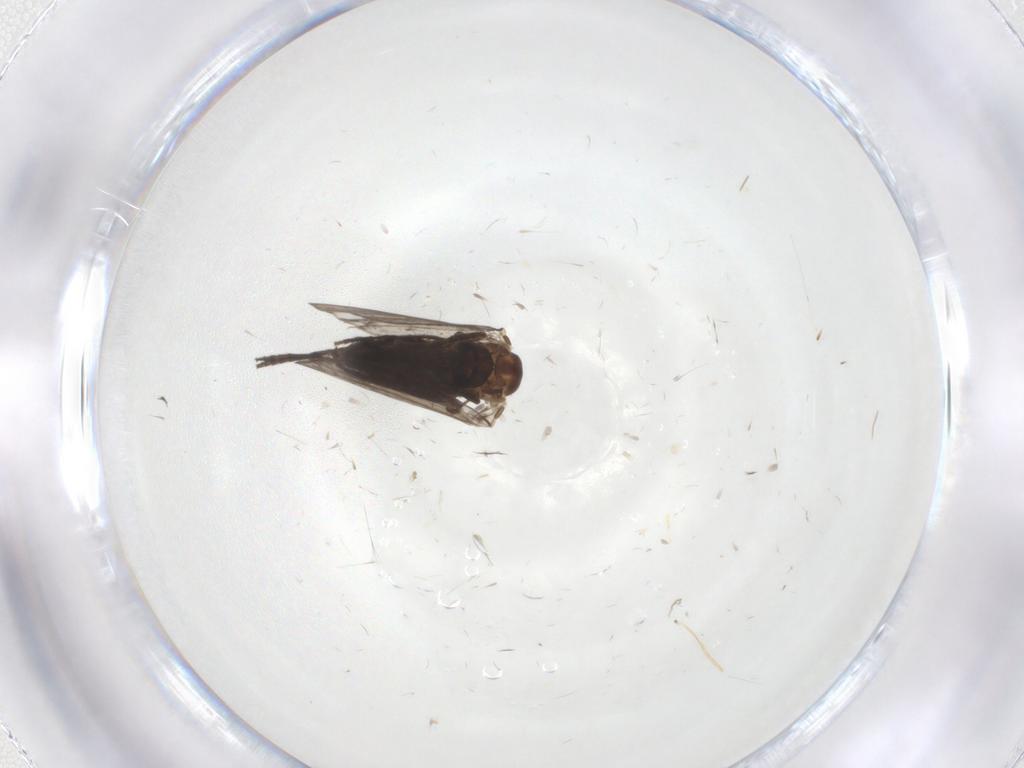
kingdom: Animalia
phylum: Arthropoda
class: Insecta
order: Diptera
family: Psychodidae
